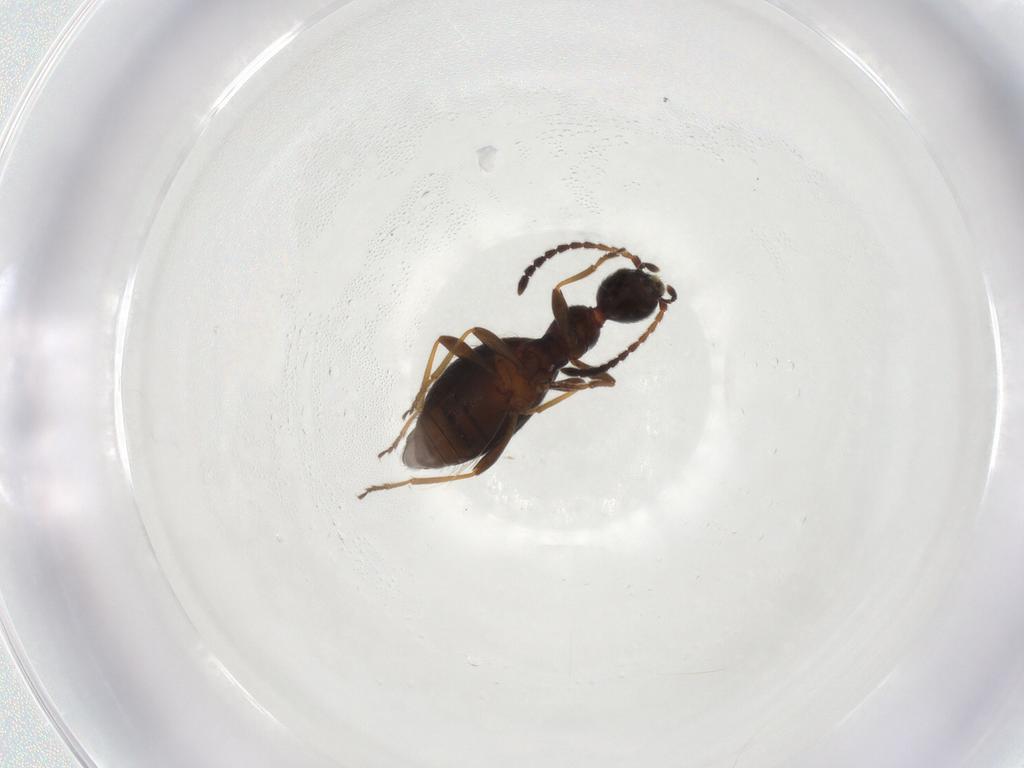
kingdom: Animalia
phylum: Arthropoda
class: Insecta
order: Coleoptera
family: Anthicidae
